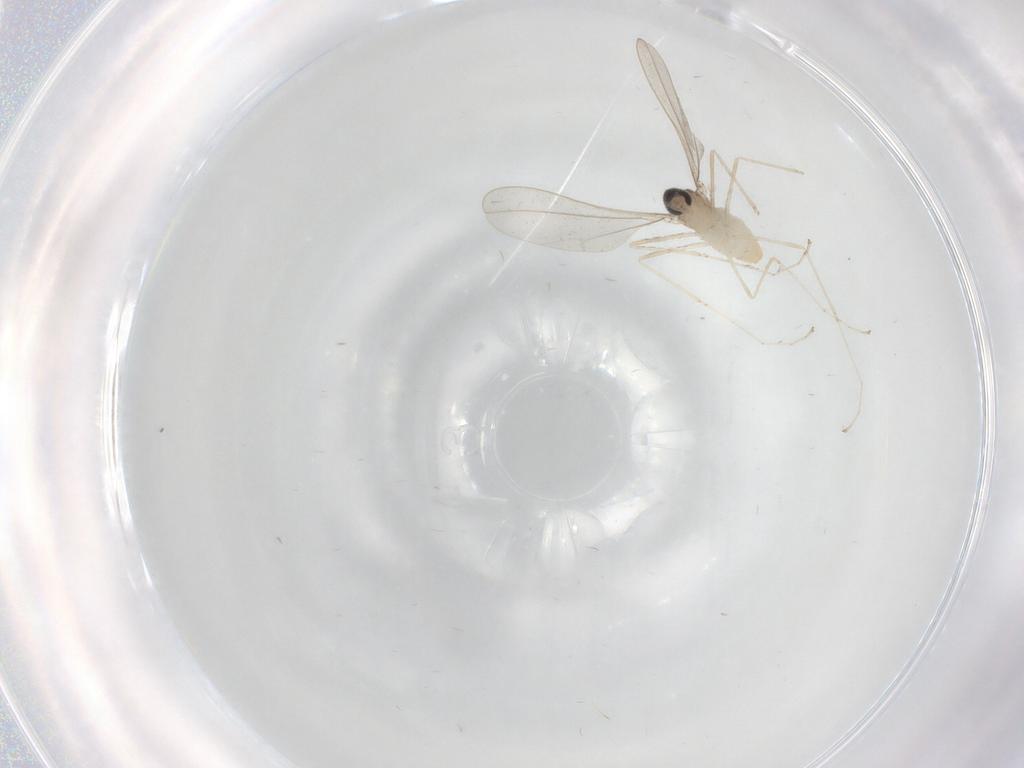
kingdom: Animalia
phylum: Arthropoda
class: Insecta
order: Diptera
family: Cecidomyiidae
